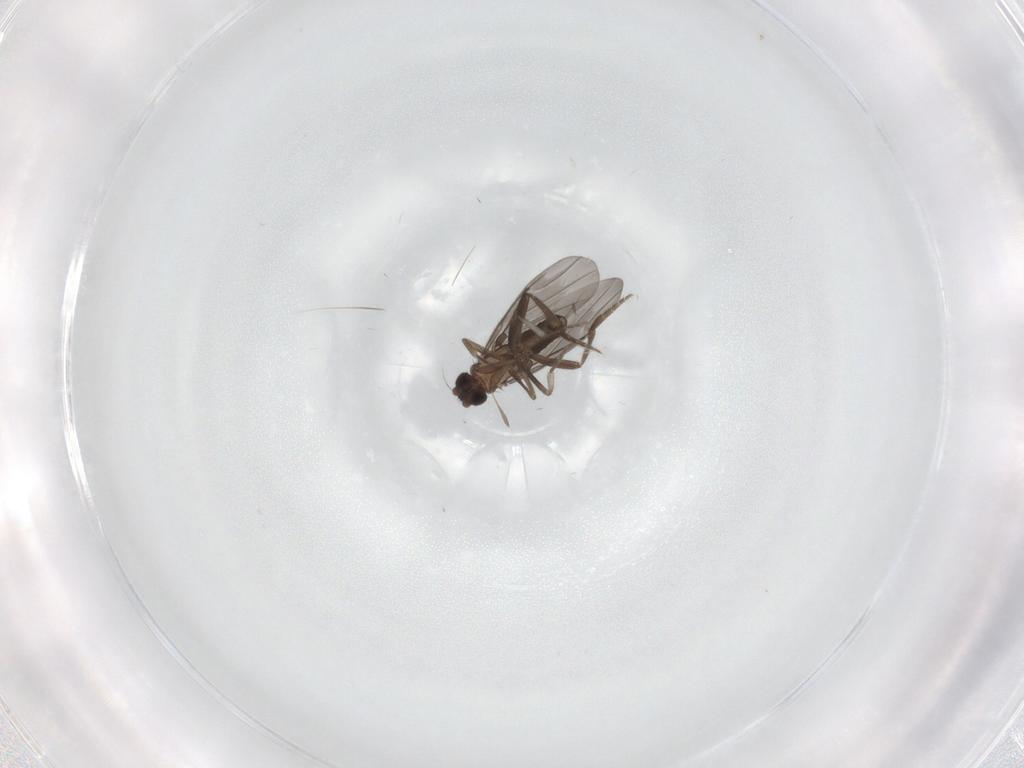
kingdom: Animalia
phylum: Arthropoda
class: Insecta
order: Diptera
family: Phoridae
